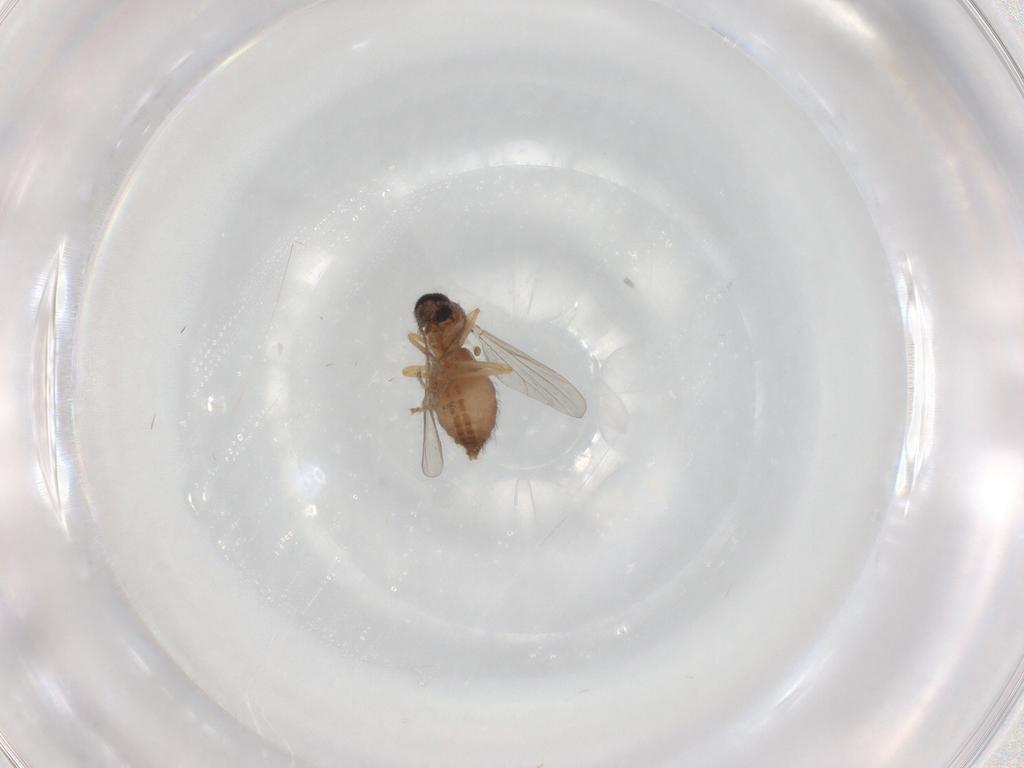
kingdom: Animalia
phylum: Arthropoda
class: Insecta
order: Diptera
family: Ceratopogonidae
